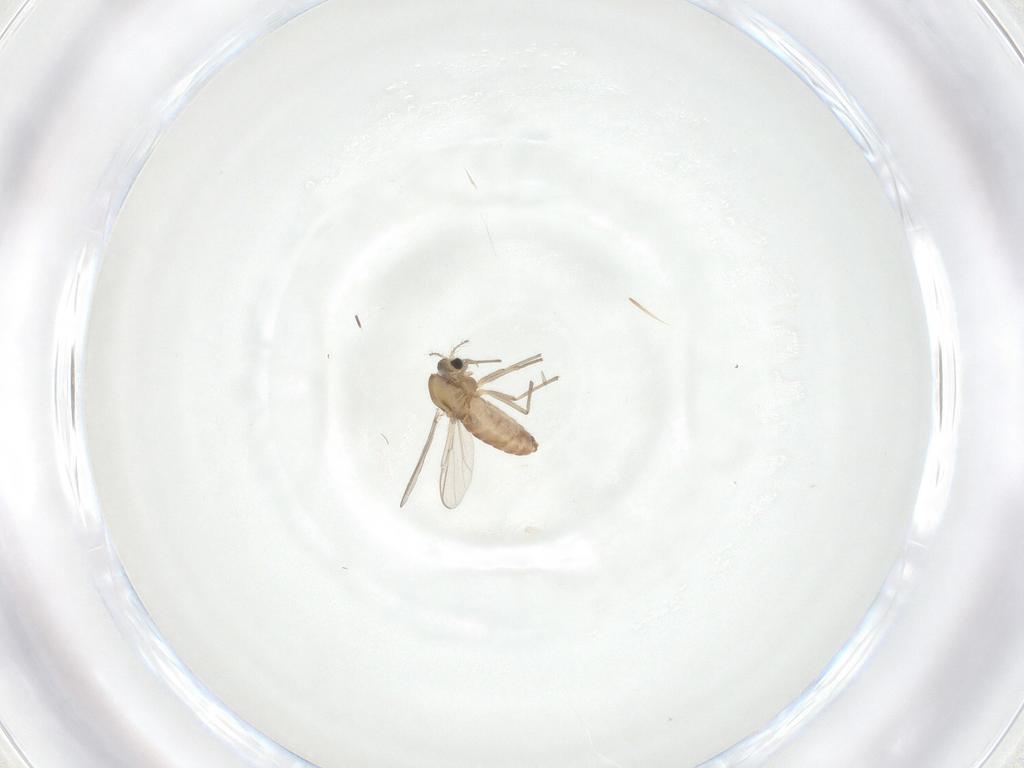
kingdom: Animalia
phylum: Arthropoda
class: Insecta
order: Diptera
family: Chironomidae
